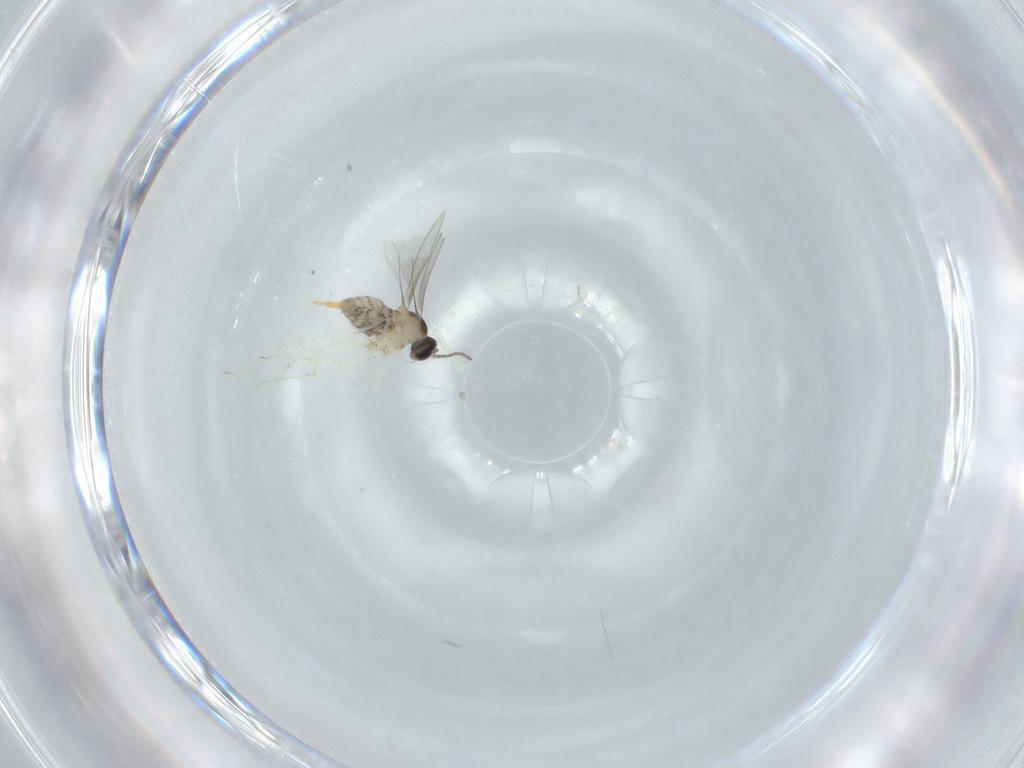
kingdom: Animalia
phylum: Arthropoda
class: Insecta
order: Diptera
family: Cecidomyiidae
